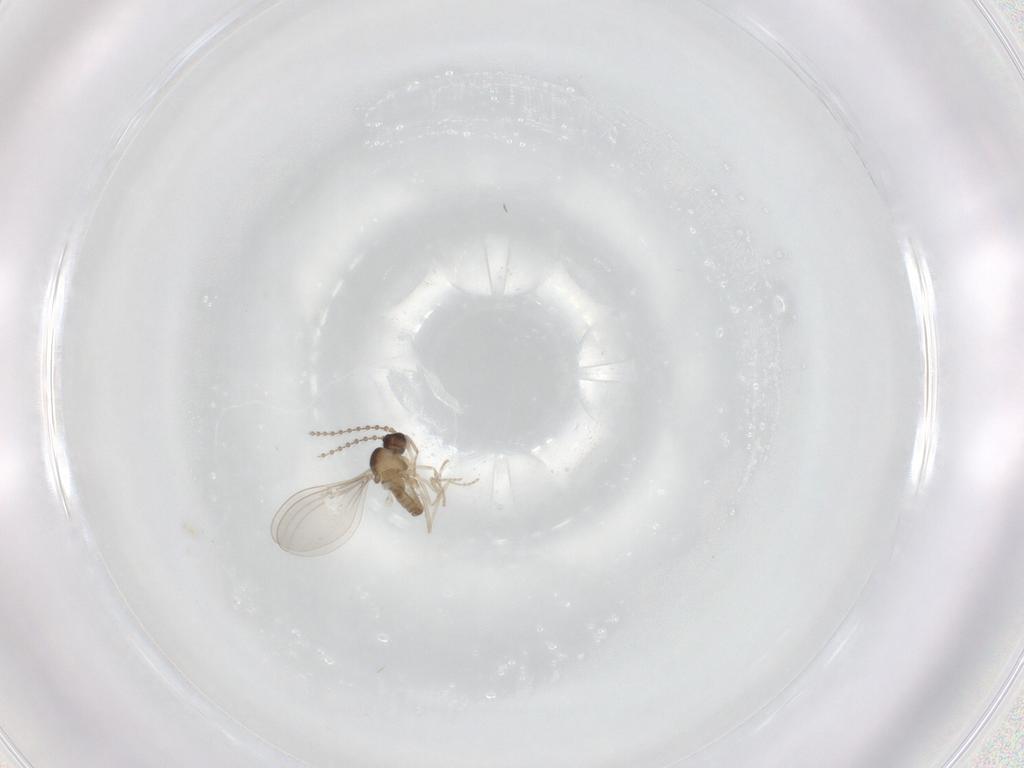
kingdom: Animalia
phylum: Arthropoda
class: Insecta
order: Diptera
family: Cecidomyiidae
